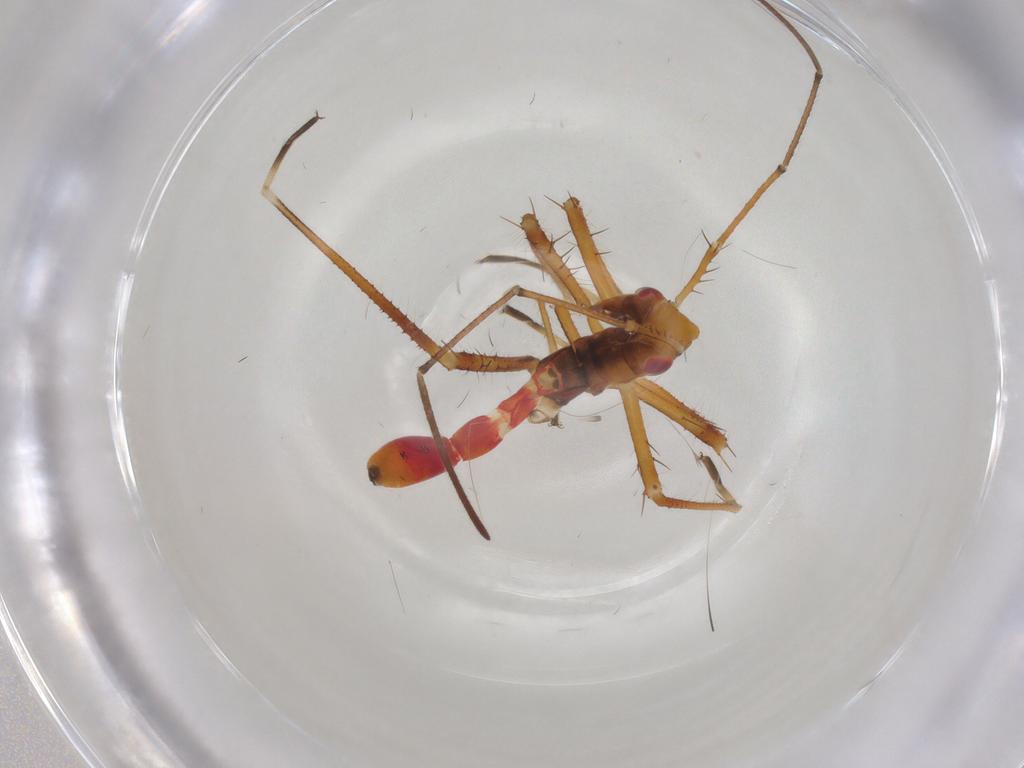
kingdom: Animalia
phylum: Arthropoda
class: Insecta
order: Hemiptera
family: Colobathristidae
